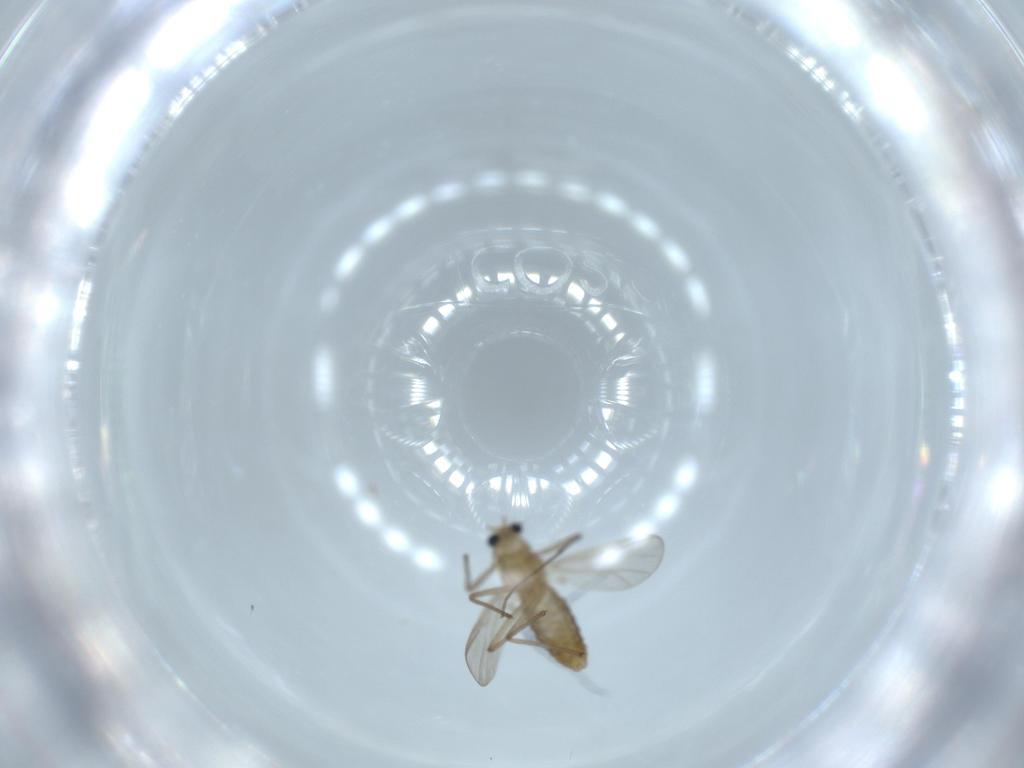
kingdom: Animalia
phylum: Arthropoda
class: Insecta
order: Diptera
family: Chironomidae
